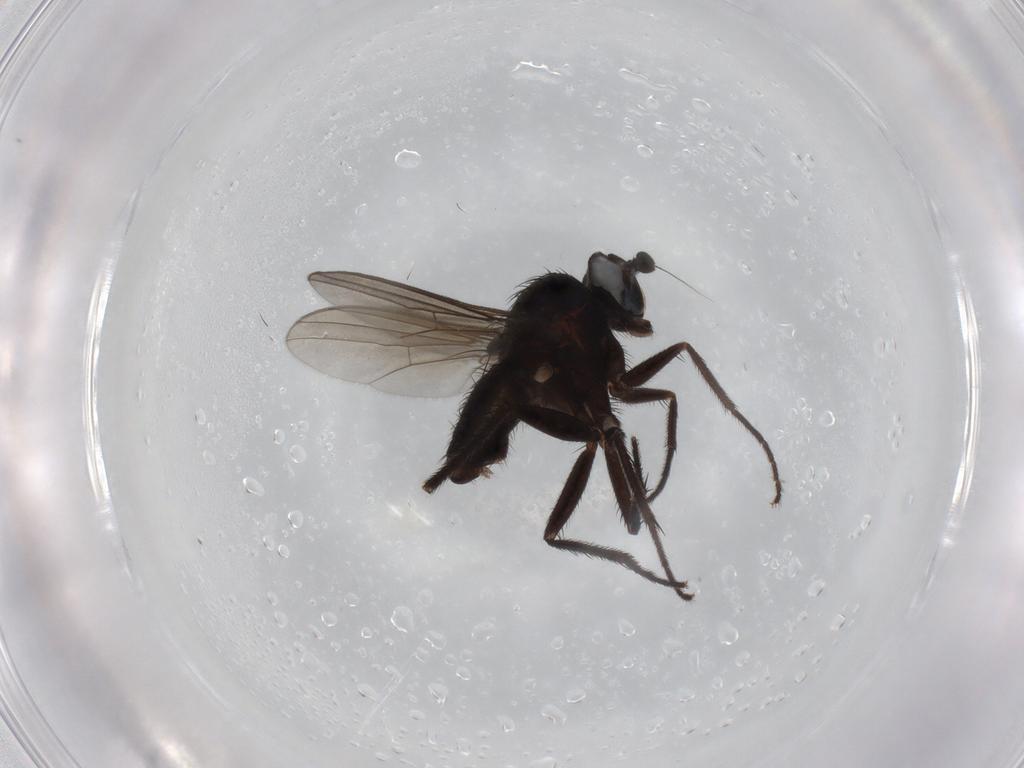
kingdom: Animalia
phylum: Arthropoda
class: Insecta
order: Diptera
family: Dolichopodidae
